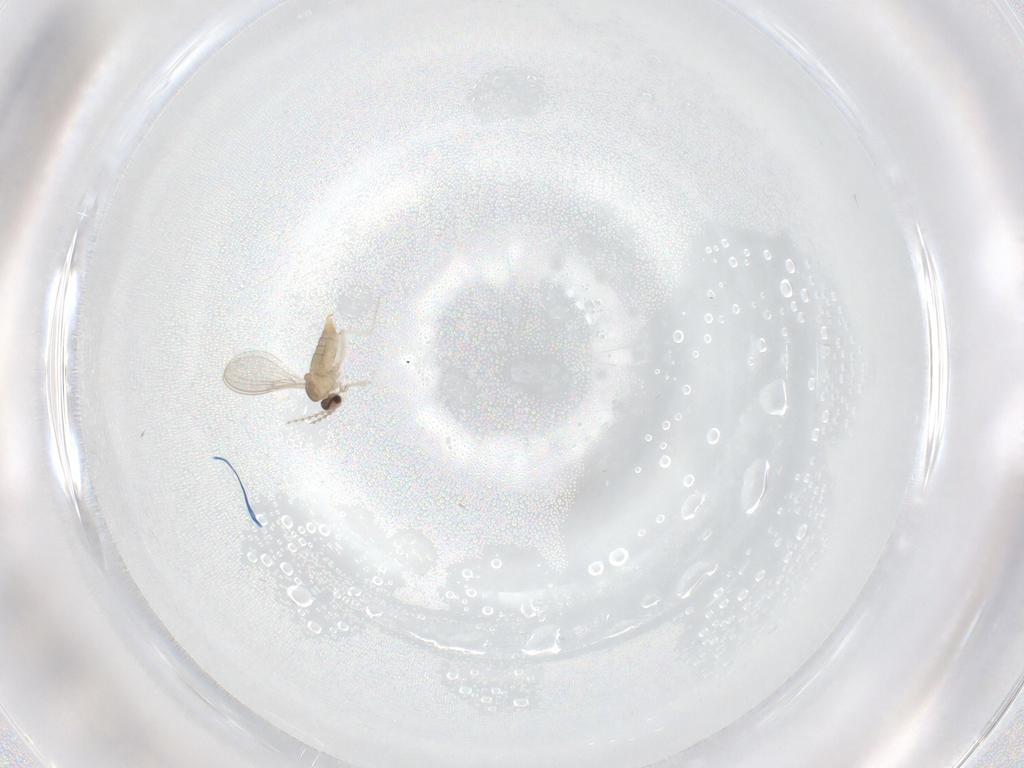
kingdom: Animalia
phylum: Arthropoda
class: Insecta
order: Diptera
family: Cecidomyiidae
